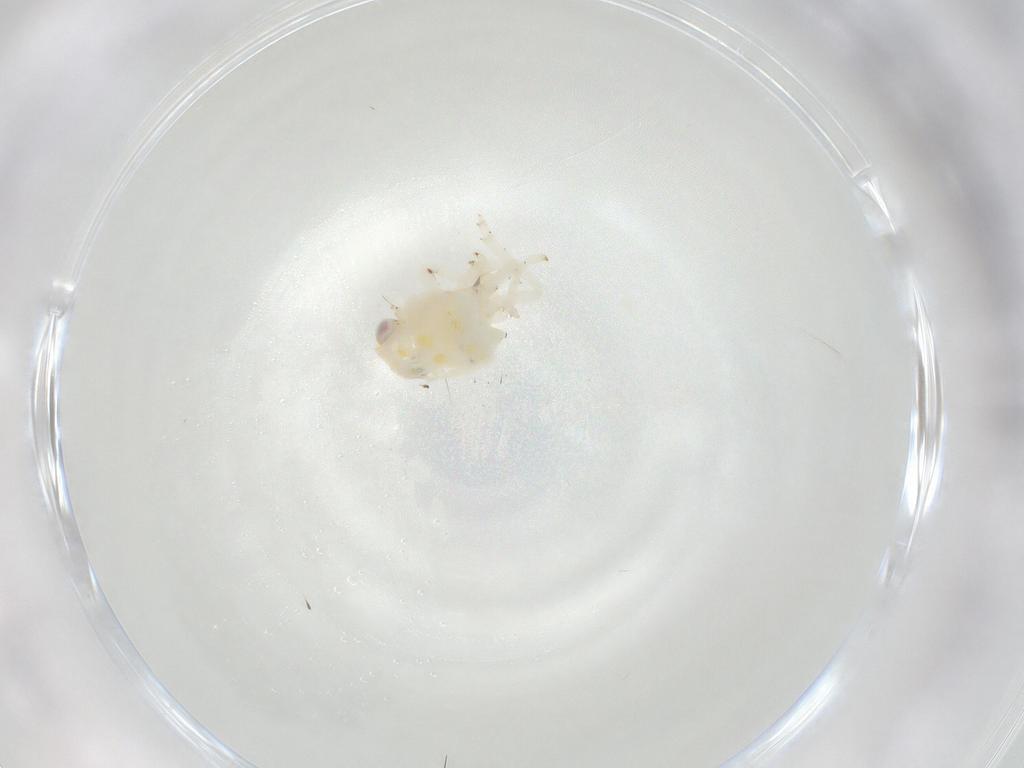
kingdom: Animalia
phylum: Arthropoda
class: Insecta
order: Hemiptera
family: Nogodinidae
